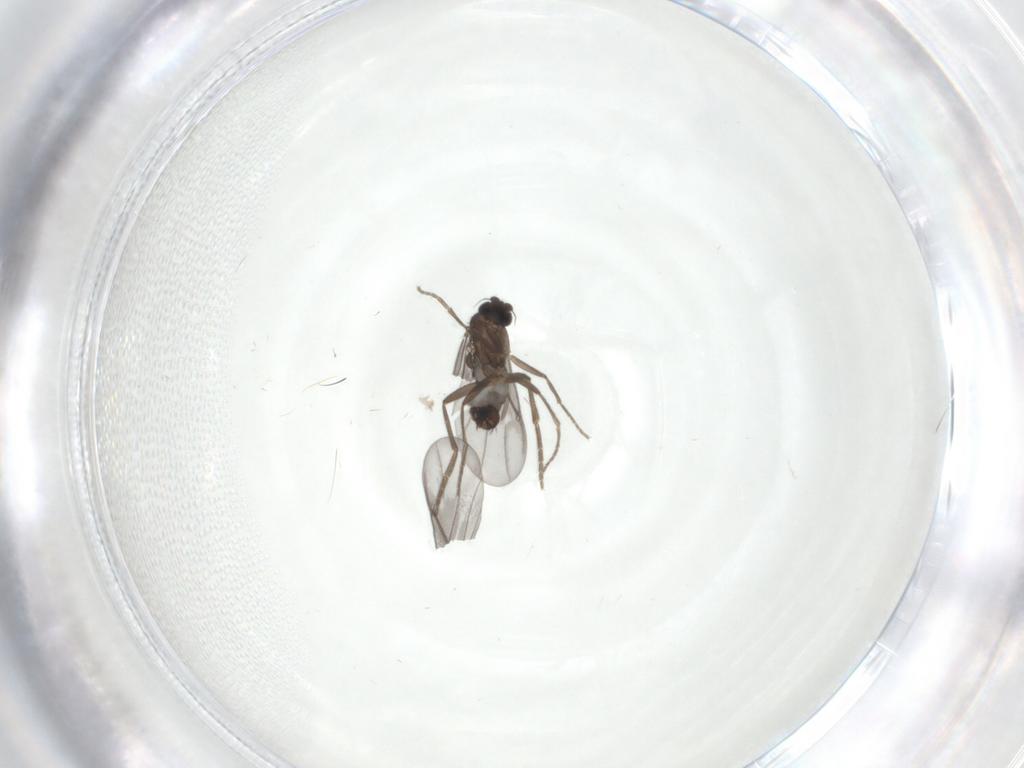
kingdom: Animalia
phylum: Arthropoda
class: Insecta
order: Diptera
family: Phoridae
